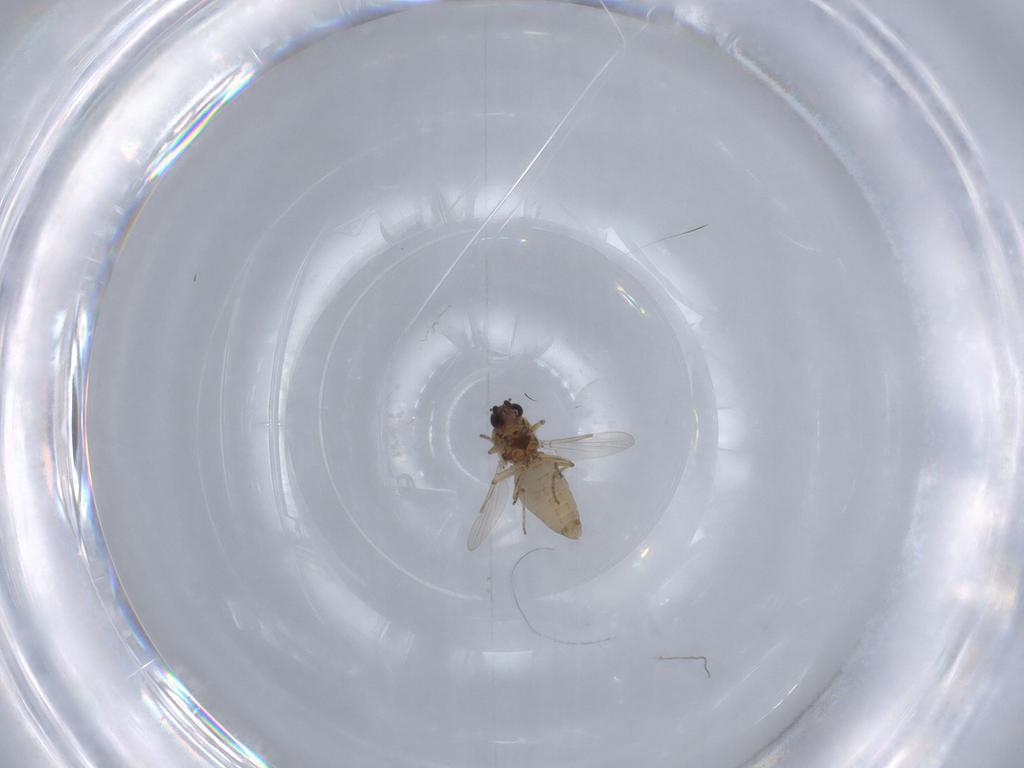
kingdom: Animalia
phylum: Arthropoda
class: Insecta
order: Diptera
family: Ceratopogonidae
